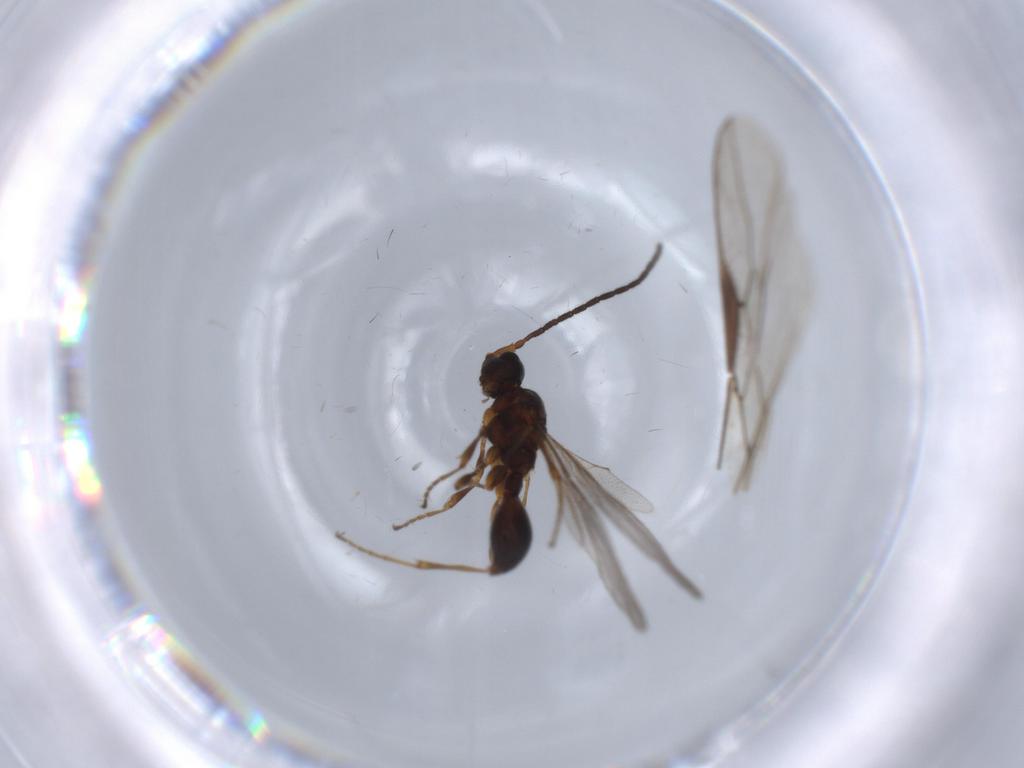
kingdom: Animalia
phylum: Arthropoda
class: Insecta
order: Hymenoptera
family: Braconidae
